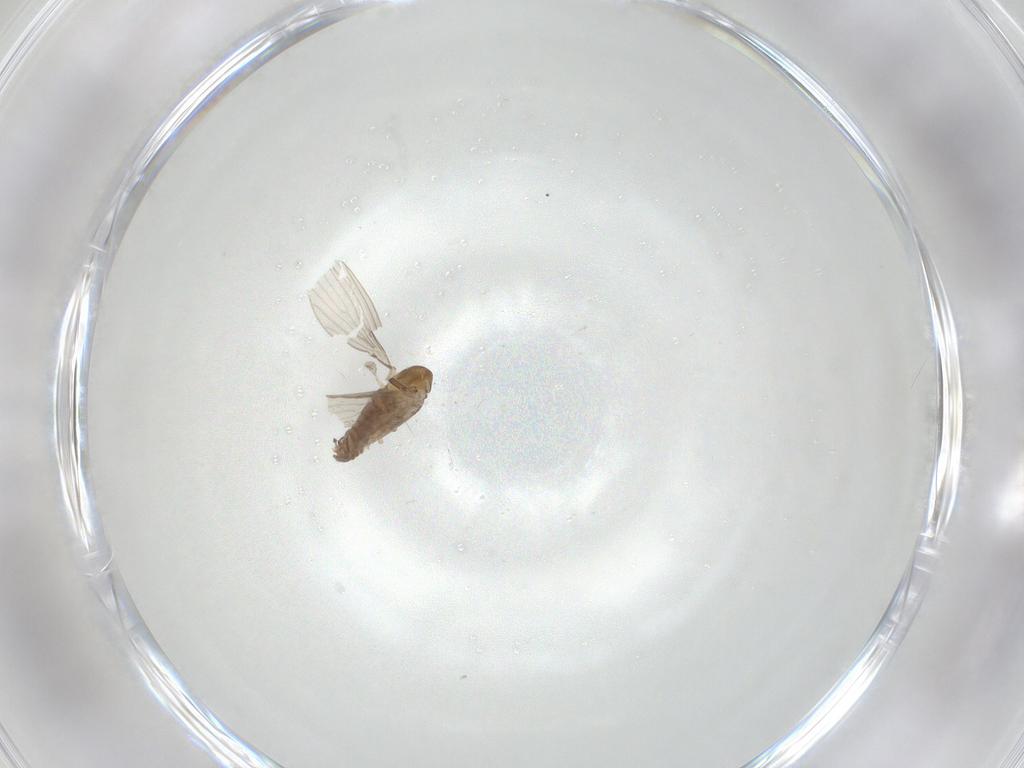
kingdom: Animalia
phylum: Arthropoda
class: Insecta
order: Diptera
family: Psychodidae
